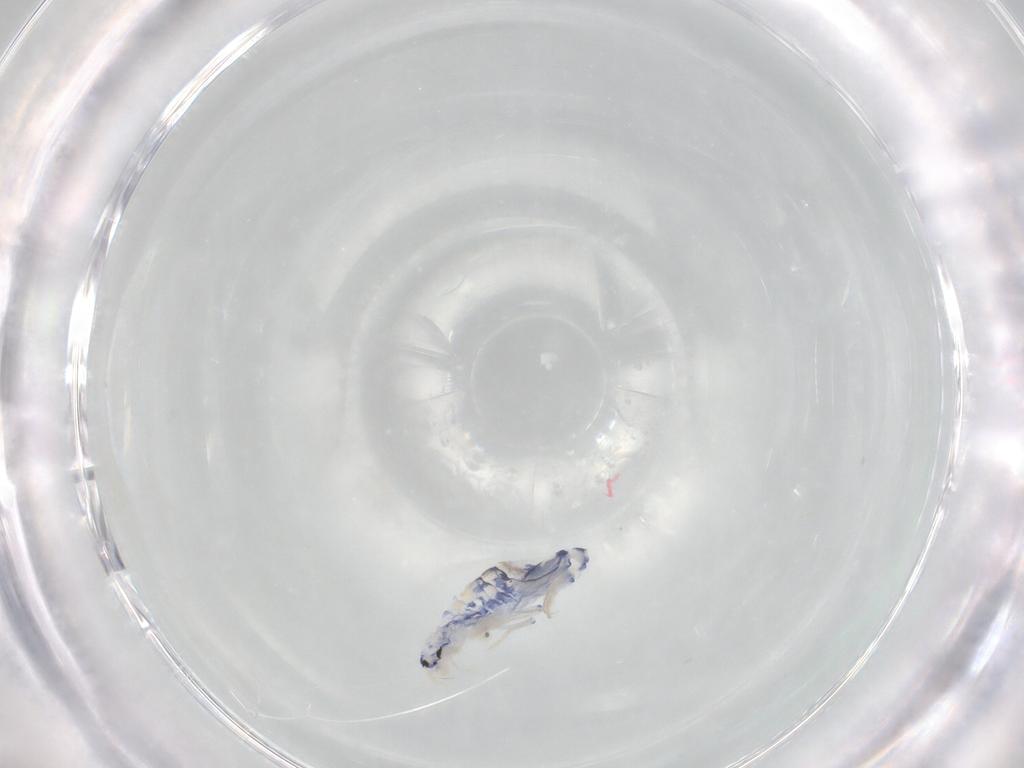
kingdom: Animalia
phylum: Arthropoda
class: Collembola
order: Entomobryomorpha
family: Entomobryidae
